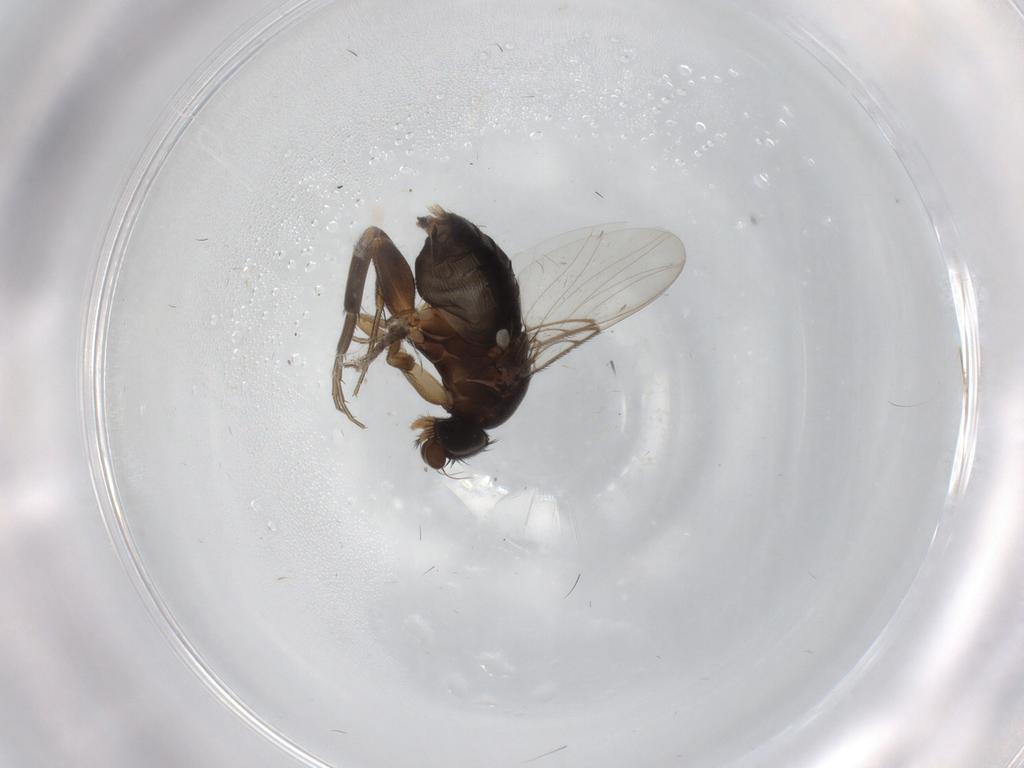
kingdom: Animalia
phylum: Arthropoda
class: Insecta
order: Diptera
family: Phoridae
